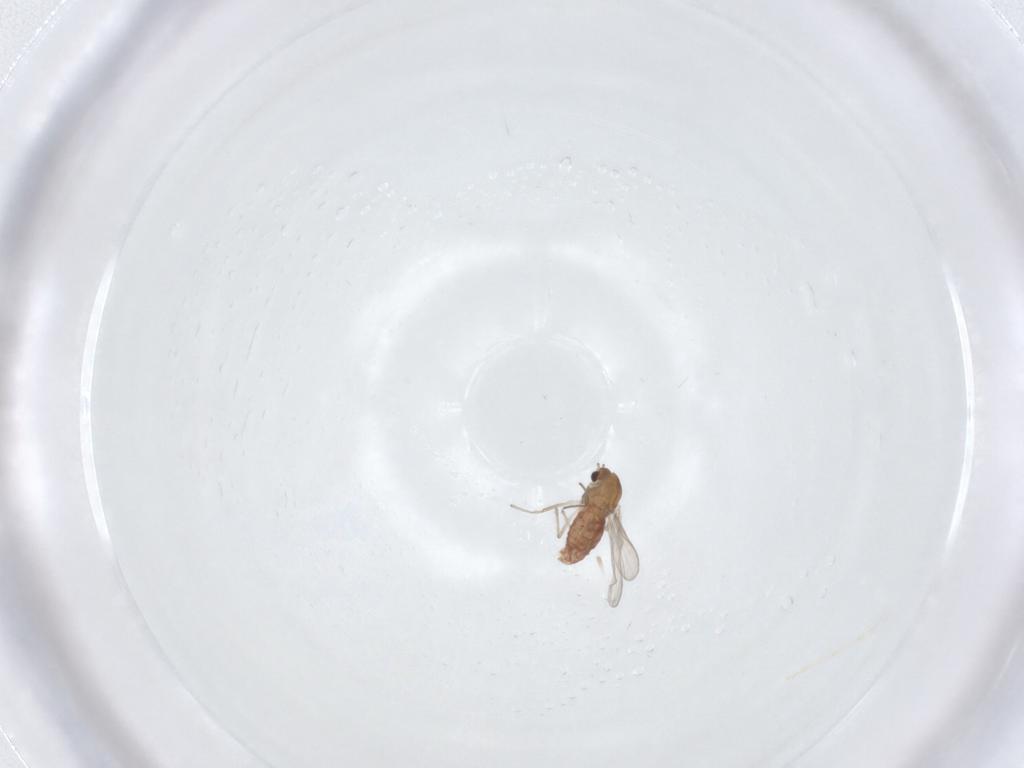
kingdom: Animalia
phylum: Arthropoda
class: Insecta
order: Diptera
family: Chironomidae
